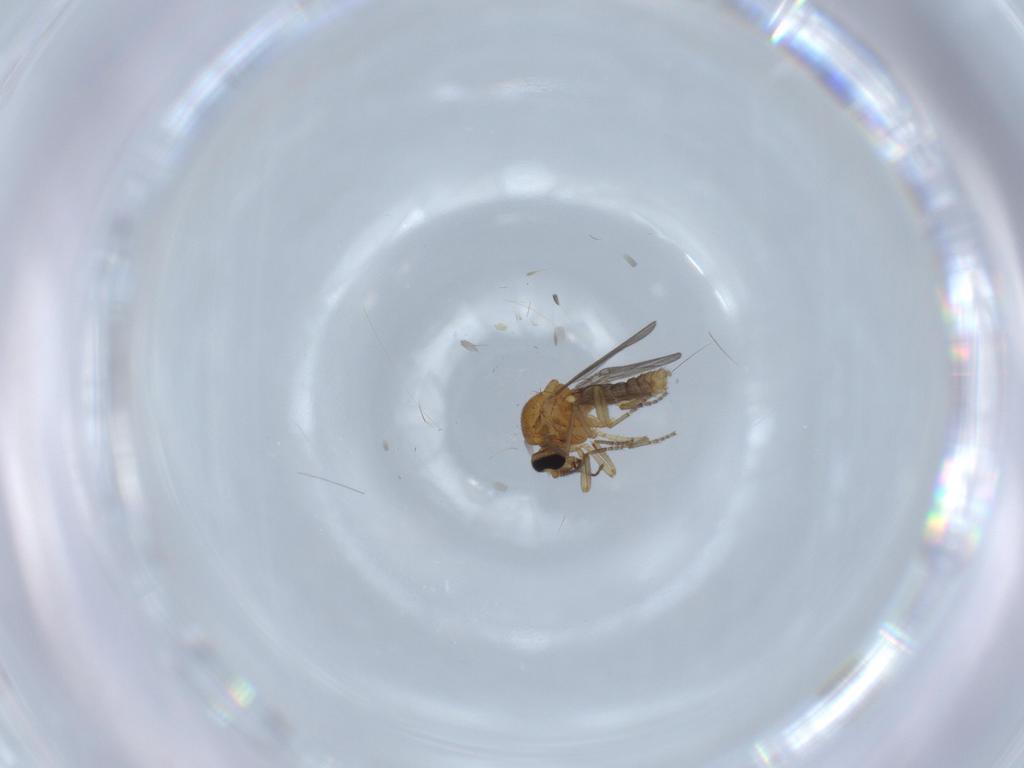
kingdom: Animalia
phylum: Arthropoda
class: Insecta
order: Diptera
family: Ceratopogonidae
